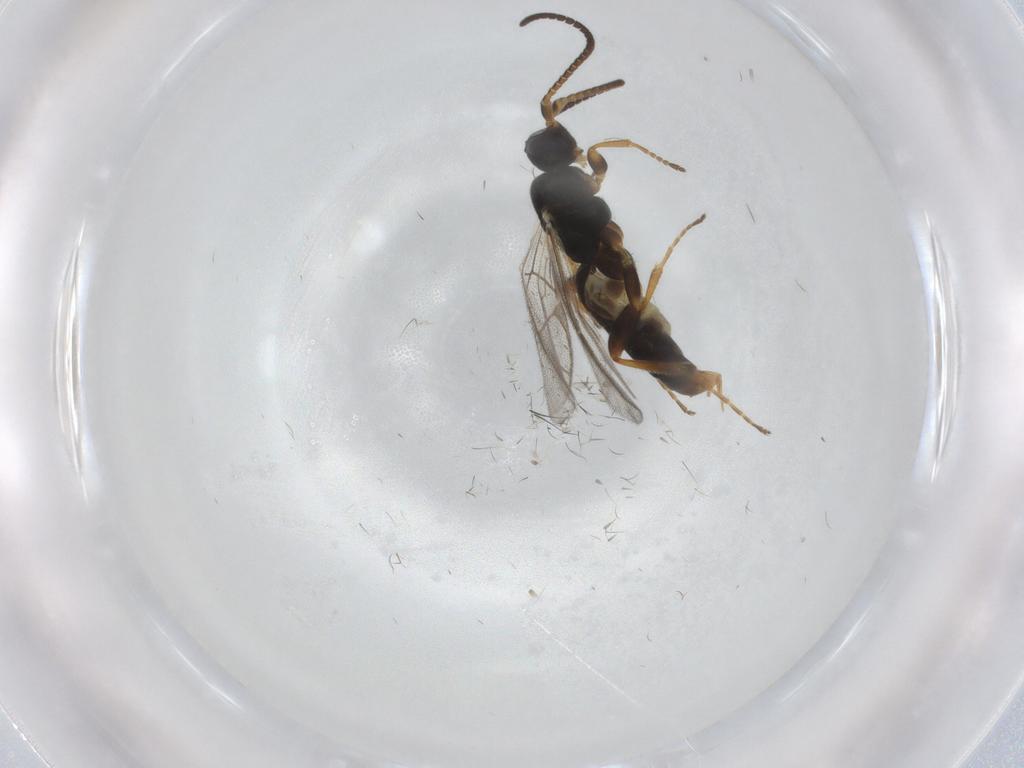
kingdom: Animalia
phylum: Arthropoda
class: Insecta
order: Hymenoptera
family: Ichneumonidae
